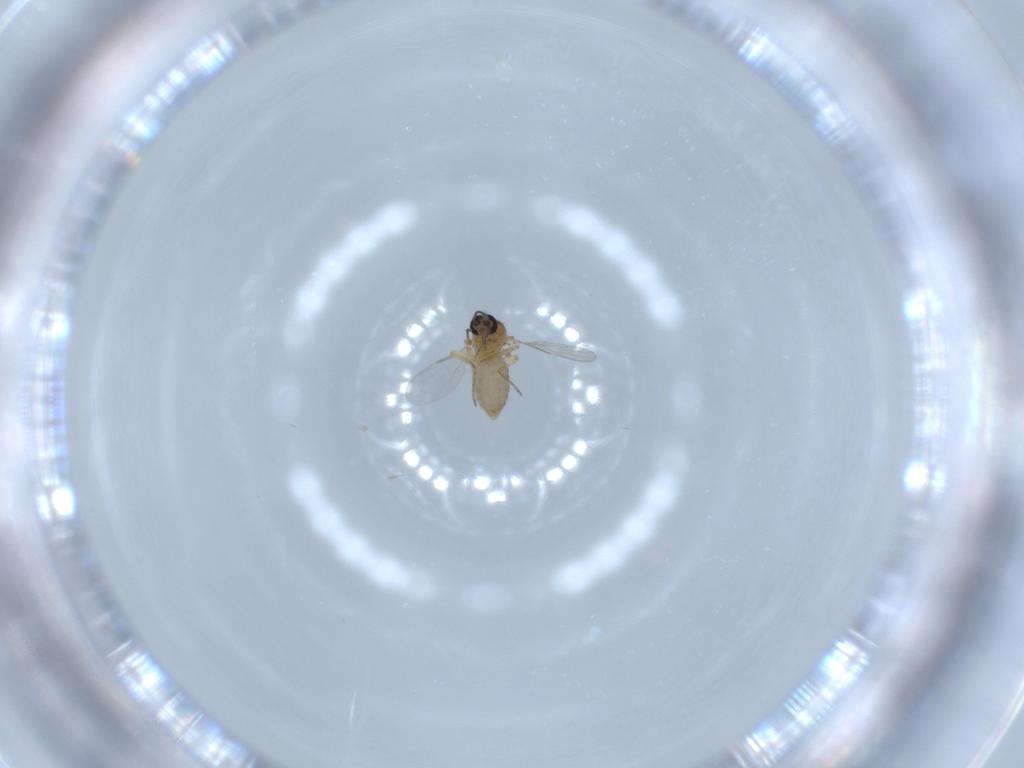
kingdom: Animalia
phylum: Arthropoda
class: Insecta
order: Diptera
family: Ceratopogonidae
